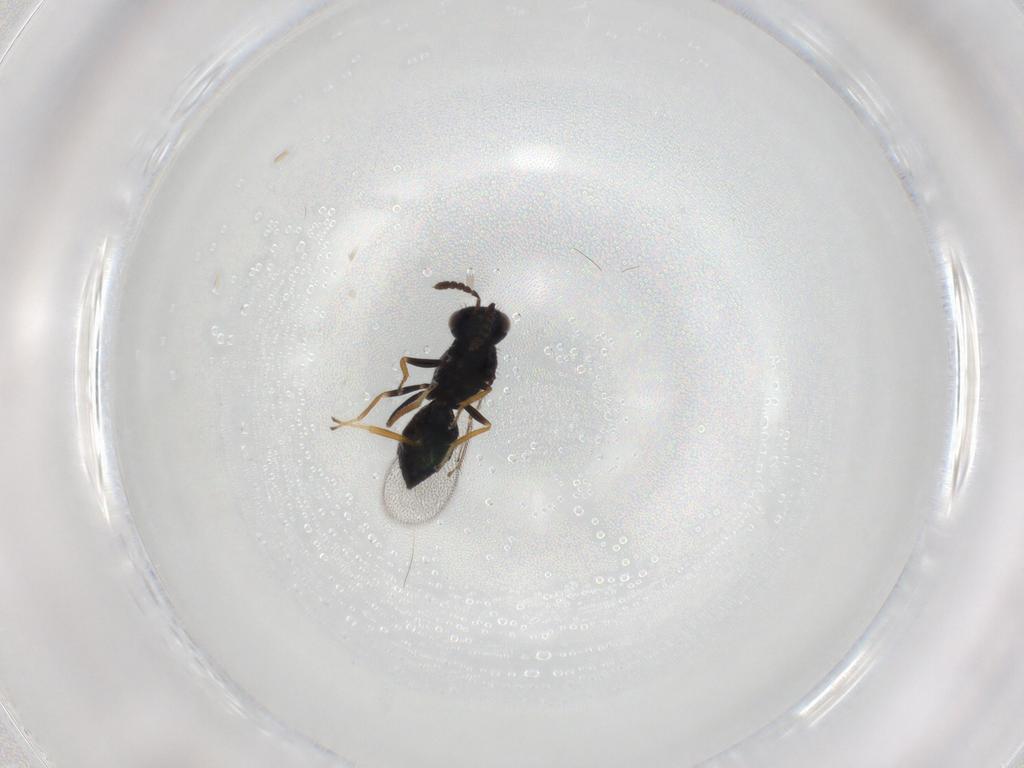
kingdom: Animalia
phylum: Arthropoda
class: Insecta
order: Hymenoptera
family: Eulophidae
